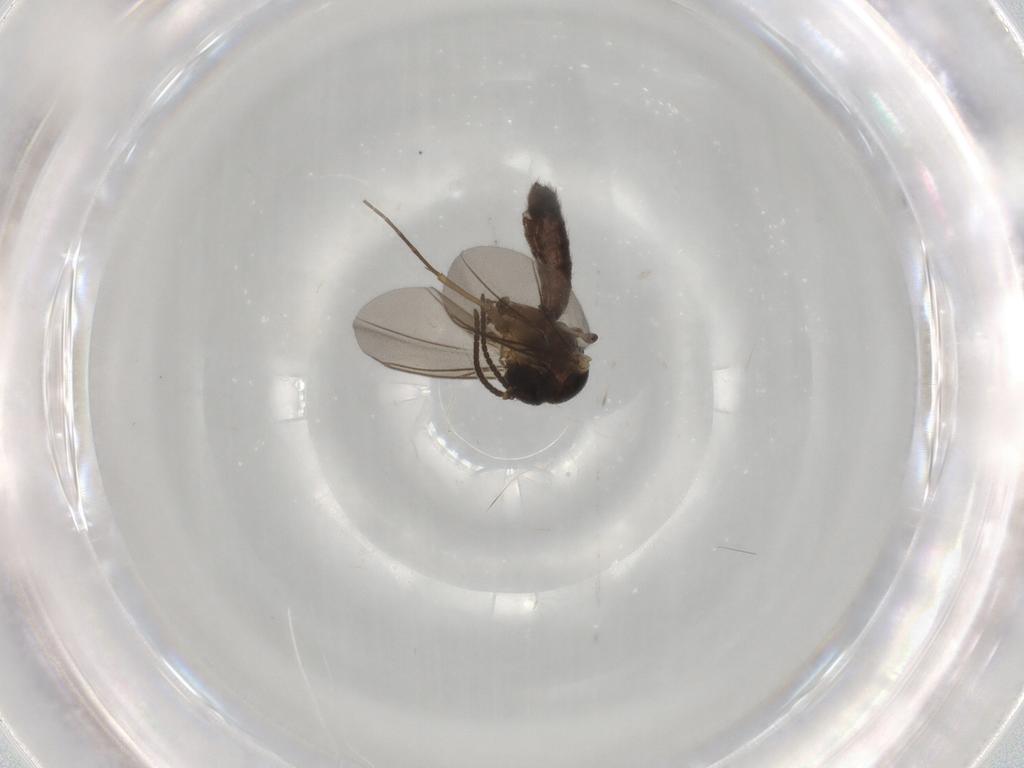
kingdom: Animalia
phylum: Arthropoda
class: Insecta
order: Diptera
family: Mycetophilidae
